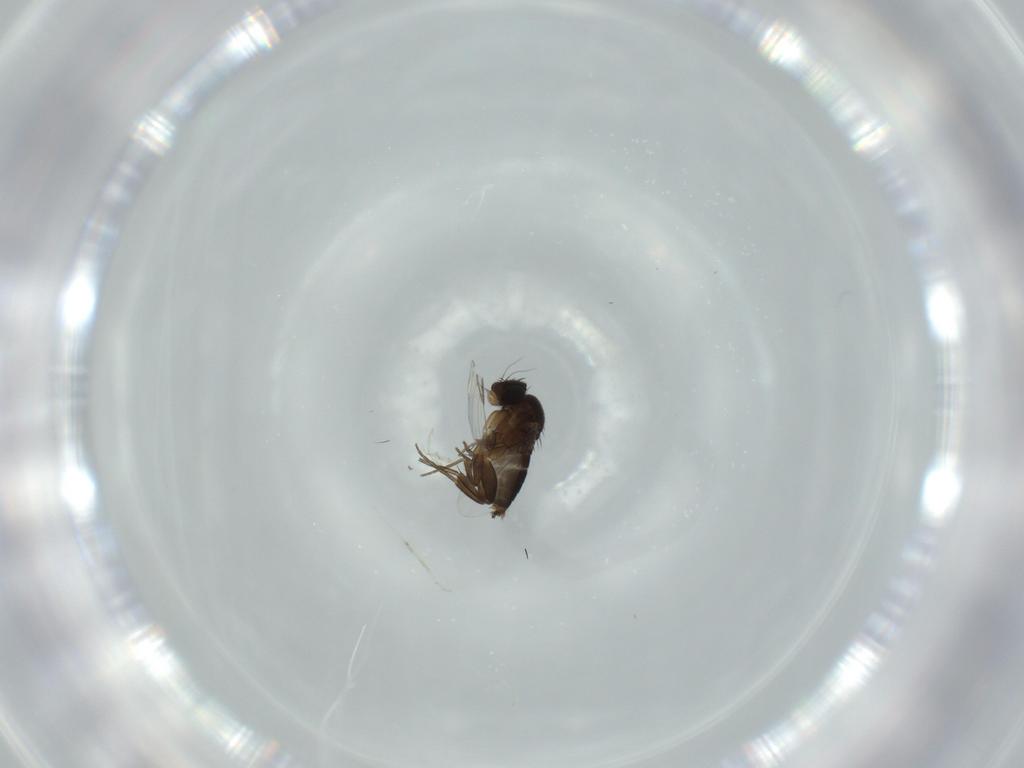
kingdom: Animalia
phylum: Arthropoda
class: Insecta
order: Diptera
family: Phoridae
